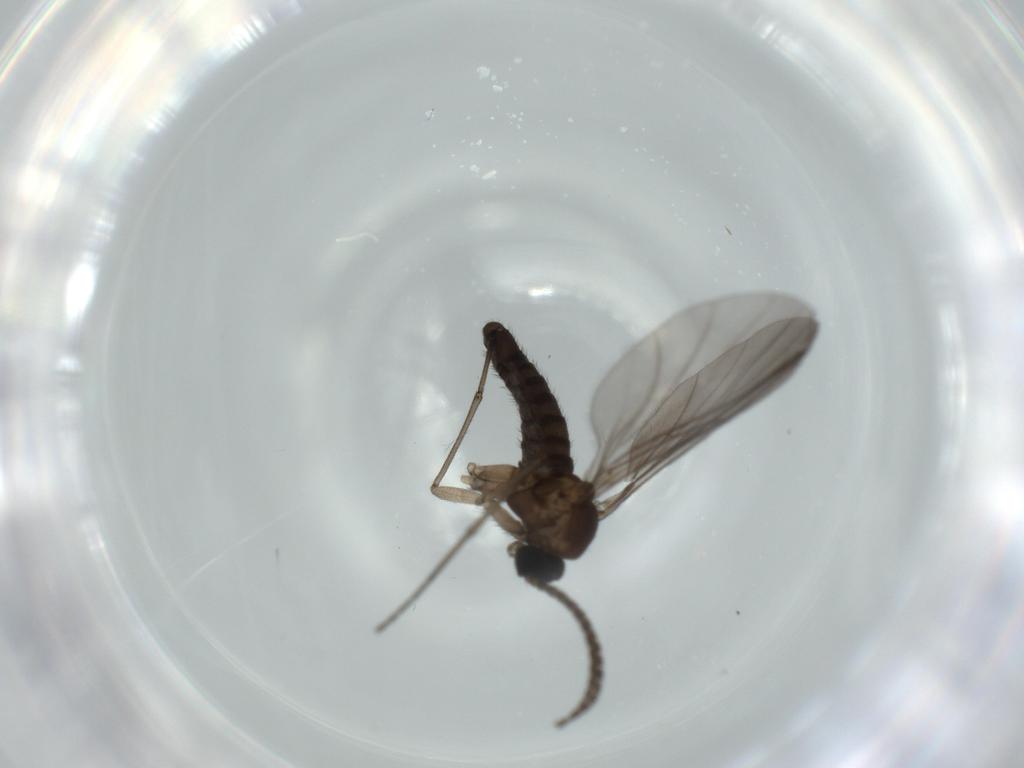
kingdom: Animalia
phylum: Arthropoda
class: Insecta
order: Diptera
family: Sciaridae
